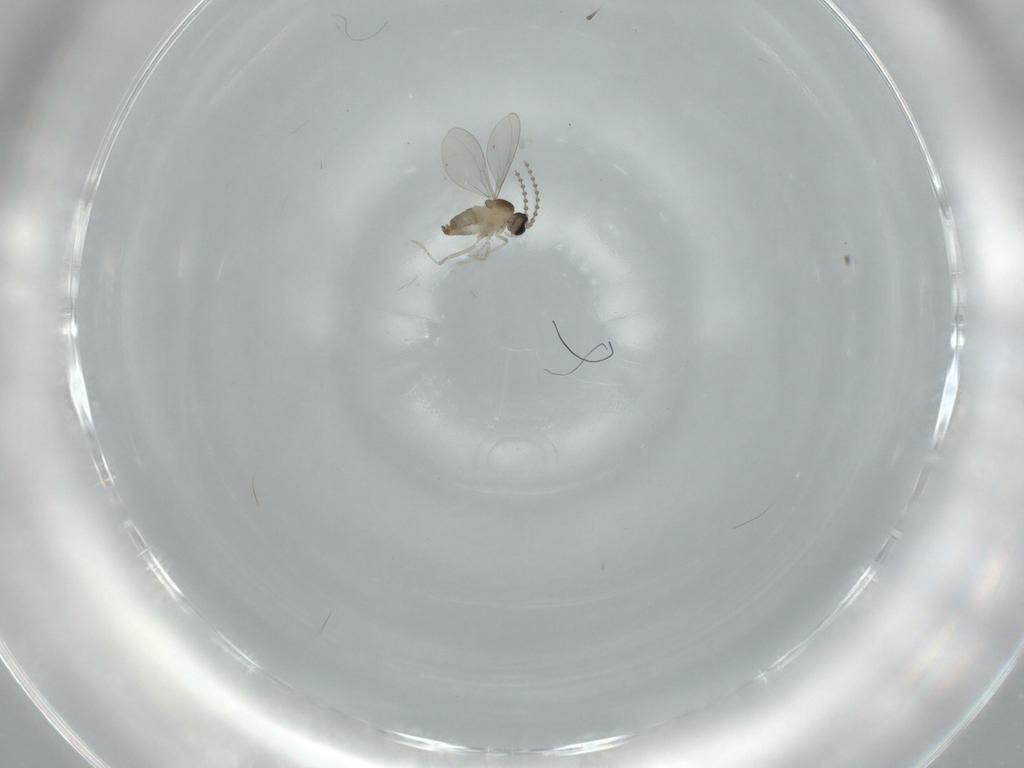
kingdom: Animalia
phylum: Arthropoda
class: Insecta
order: Diptera
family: Cecidomyiidae
